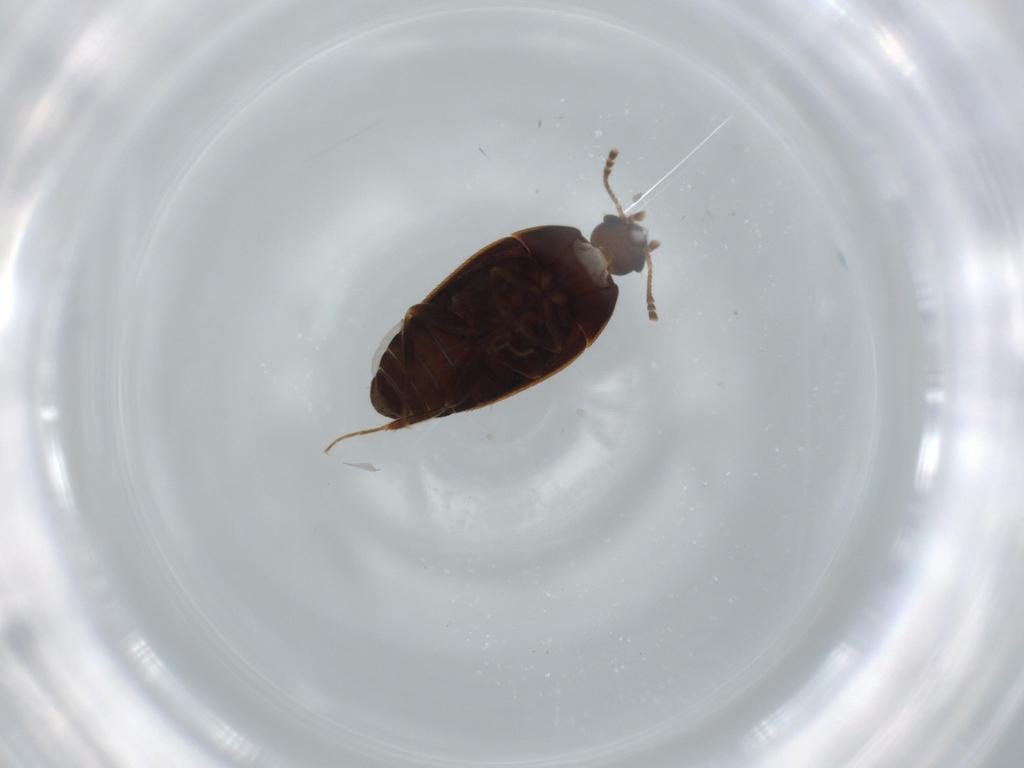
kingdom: Animalia
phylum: Arthropoda
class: Insecta
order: Coleoptera
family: Mycetophagidae
